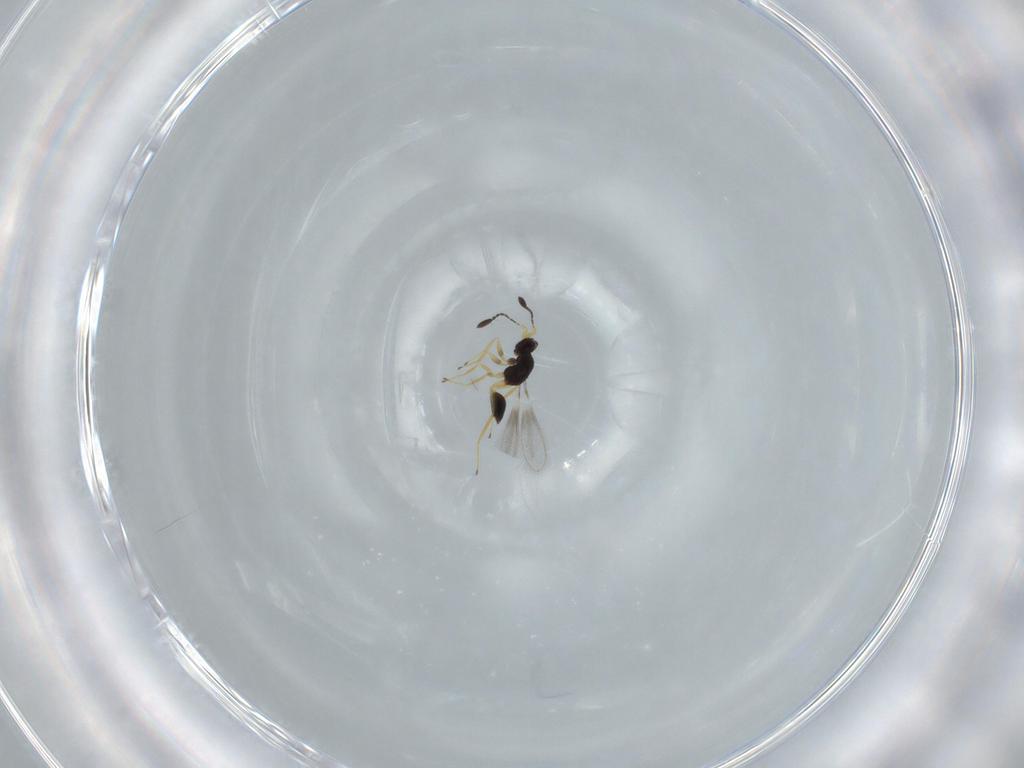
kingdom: Animalia
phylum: Arthropoda
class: Insecta
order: Hymenoptera
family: Mymaridae
